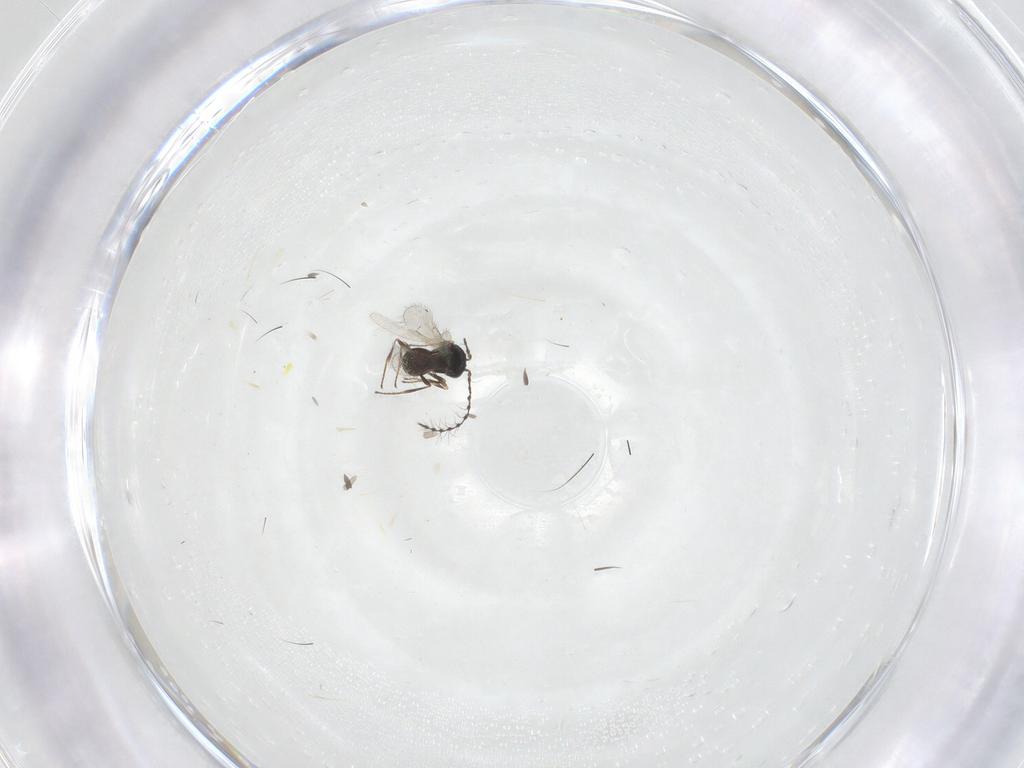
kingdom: Animalia
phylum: Arthropoda
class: Insecta
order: Hymenoptera
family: Scelionidae
